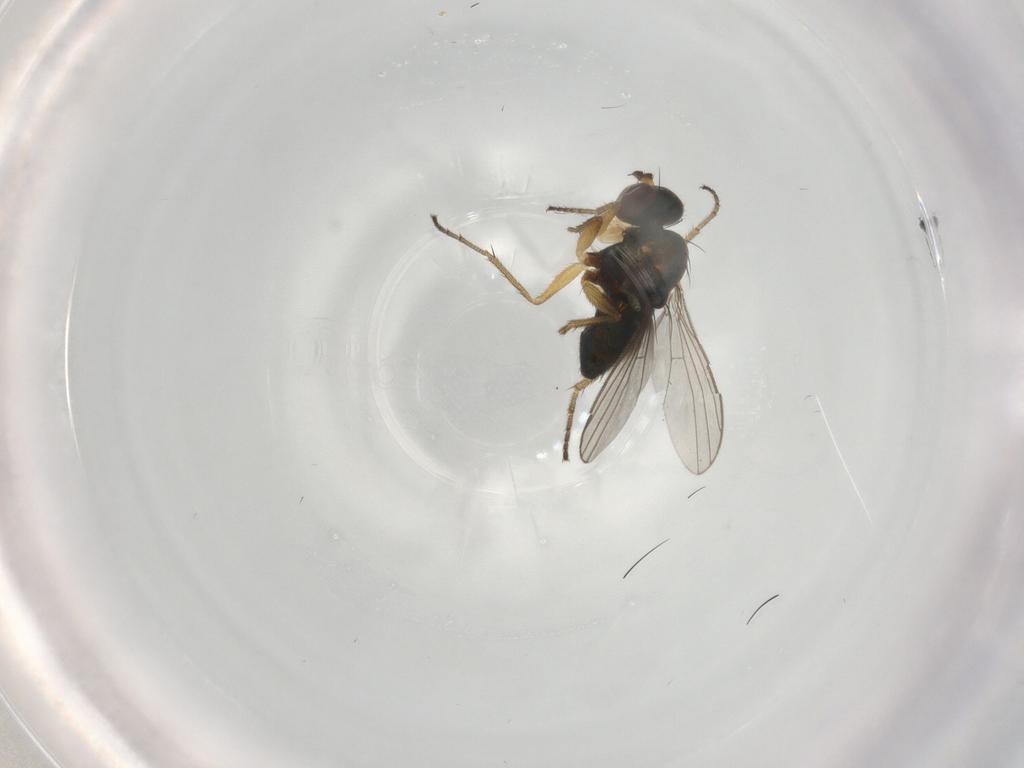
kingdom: Animalia
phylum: Arthropoda
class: Insecta
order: Diptera
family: Dolichopodidae
